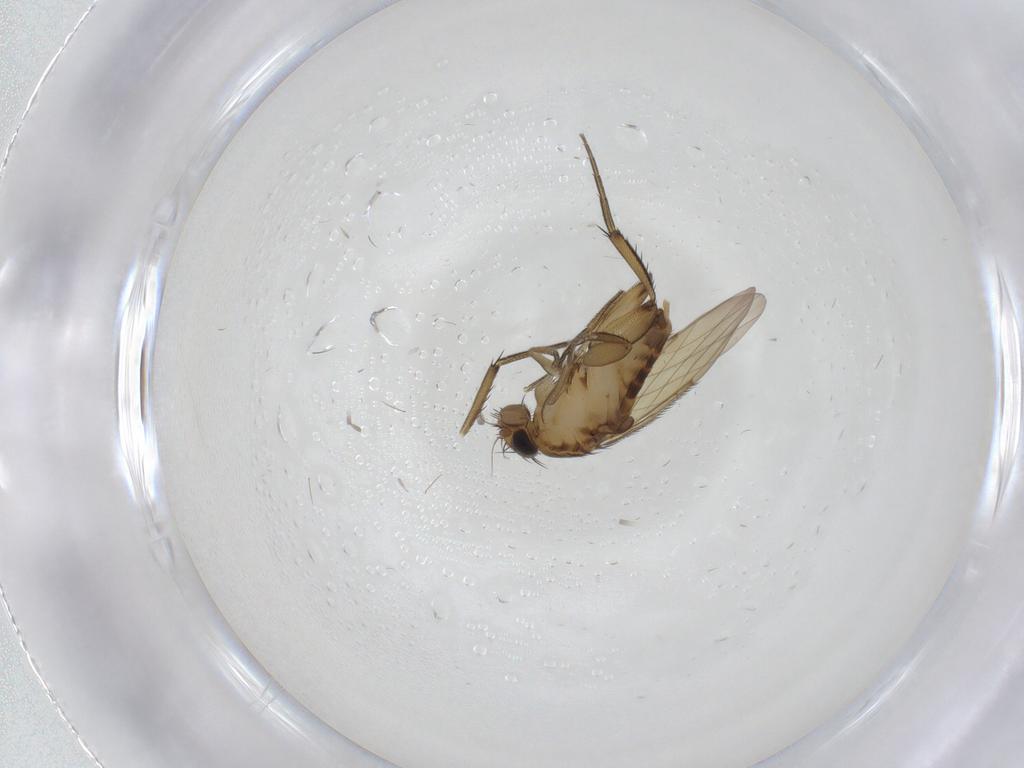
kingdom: Animalia
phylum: Arthropoda
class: Insecta
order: Diptera
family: Phoridae
